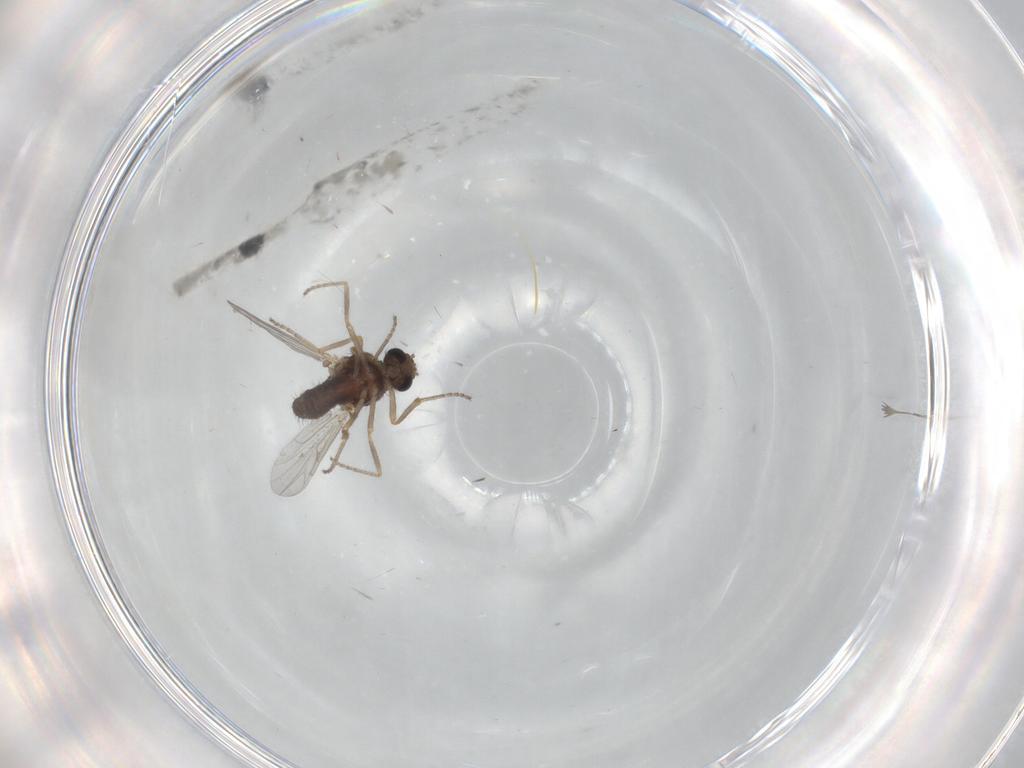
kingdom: Animalia
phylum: Arthropoda
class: Insecta
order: Diptera
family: Ceratopogonidae
